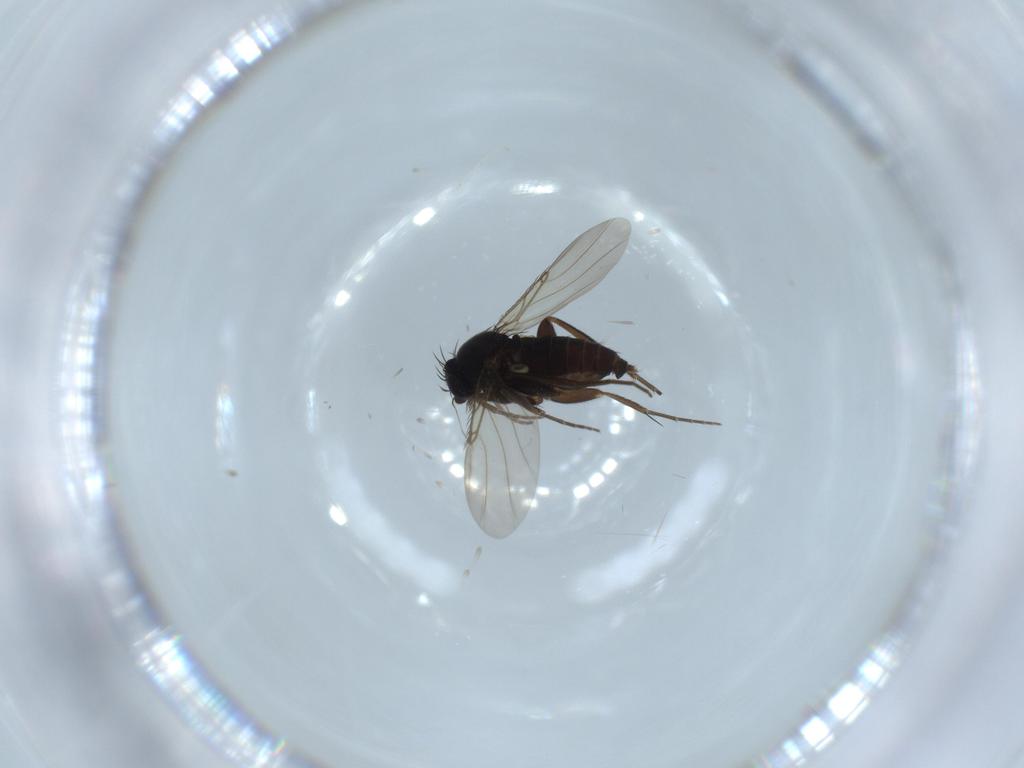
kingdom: Animalia
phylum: Arthropoda
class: Insecta
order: Diptera
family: Phoridae
